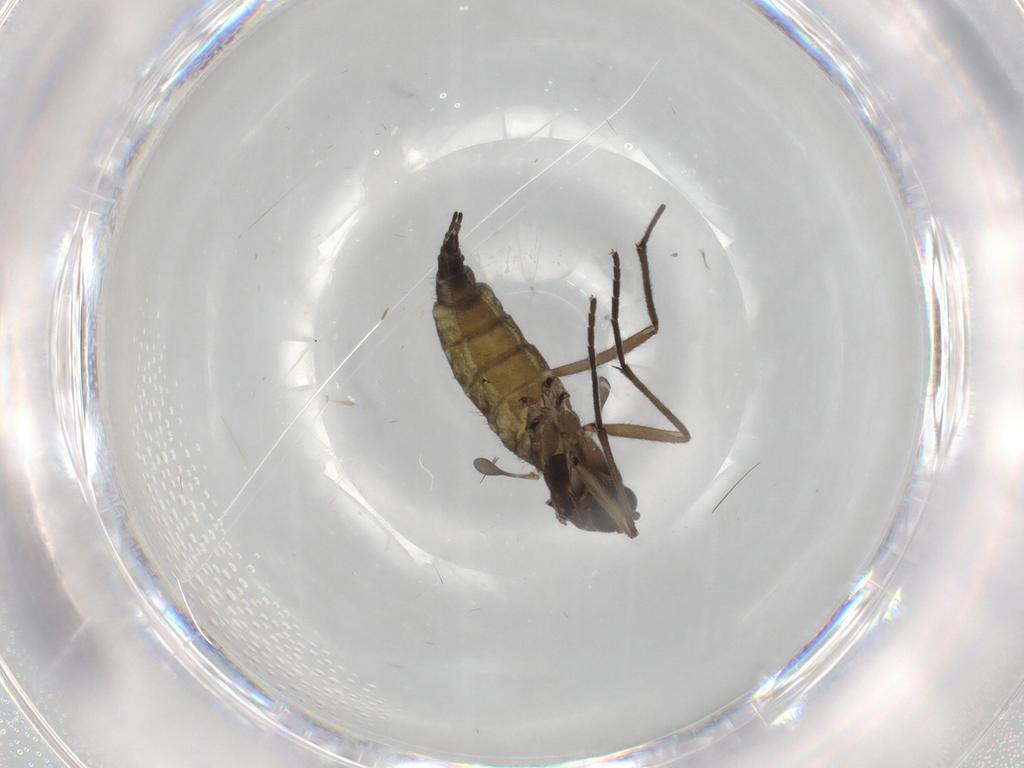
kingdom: Animalia
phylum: Arthropoda
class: Insecta
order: Diptera
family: Sciaridae
